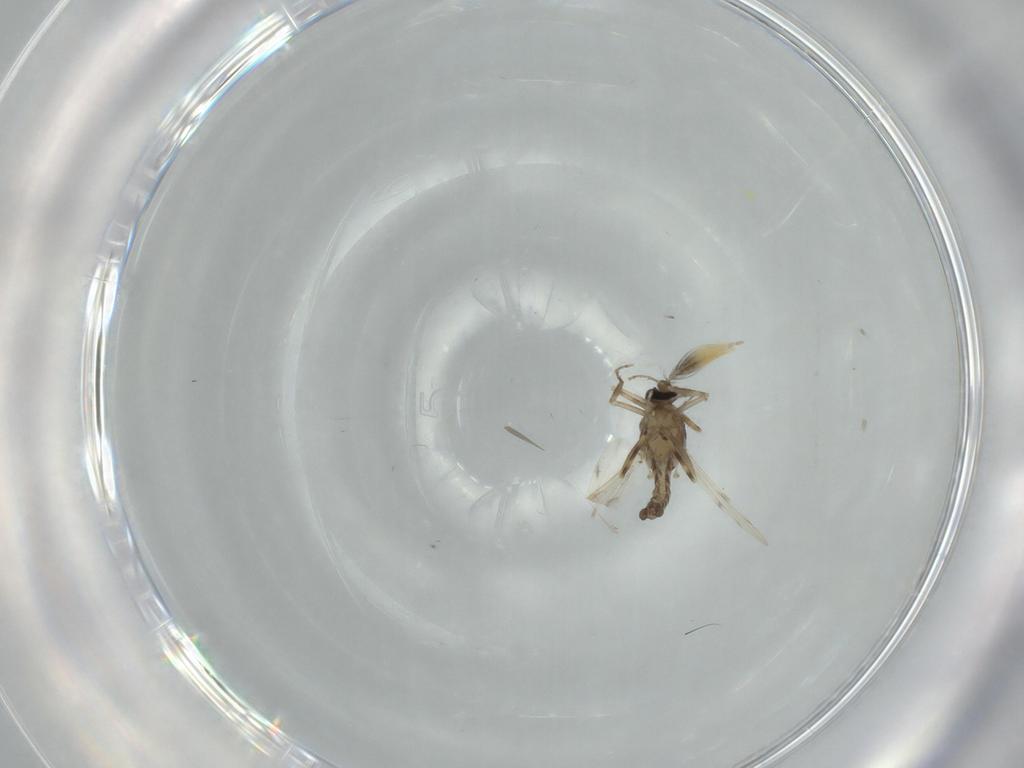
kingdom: Animalia
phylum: Arthropoda
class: Insecta
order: Diptera
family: Ceratopogonidae
